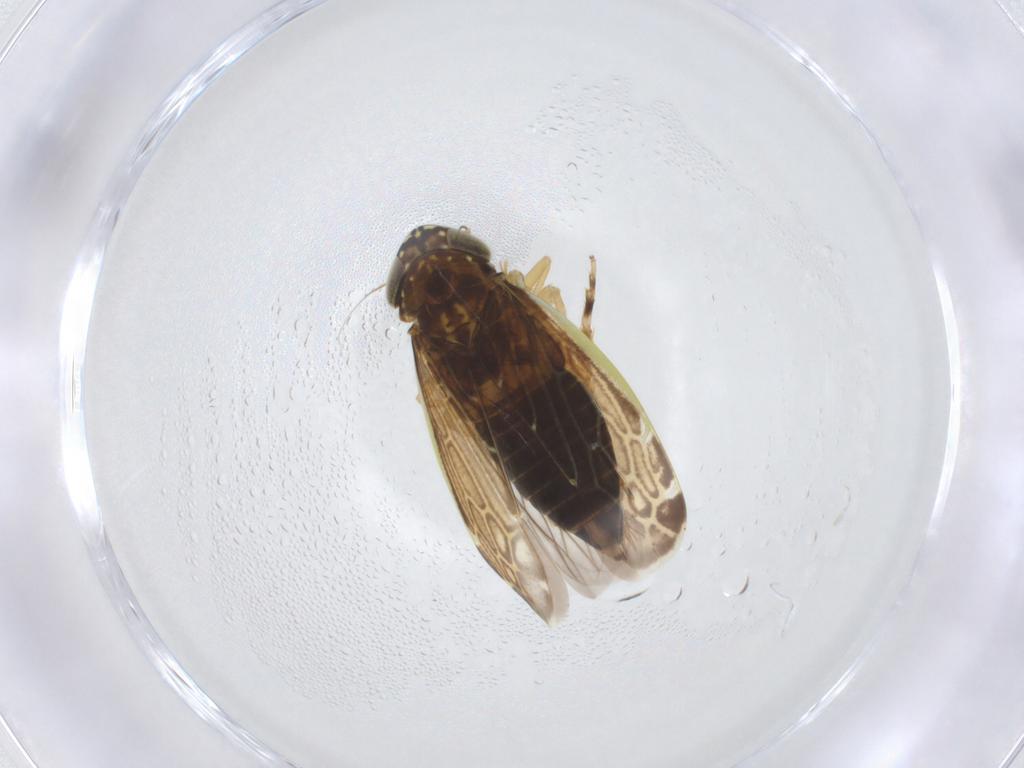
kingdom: Animalia
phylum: Arthropoda
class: Insecta
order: Hemiptera
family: Cicadellidae
